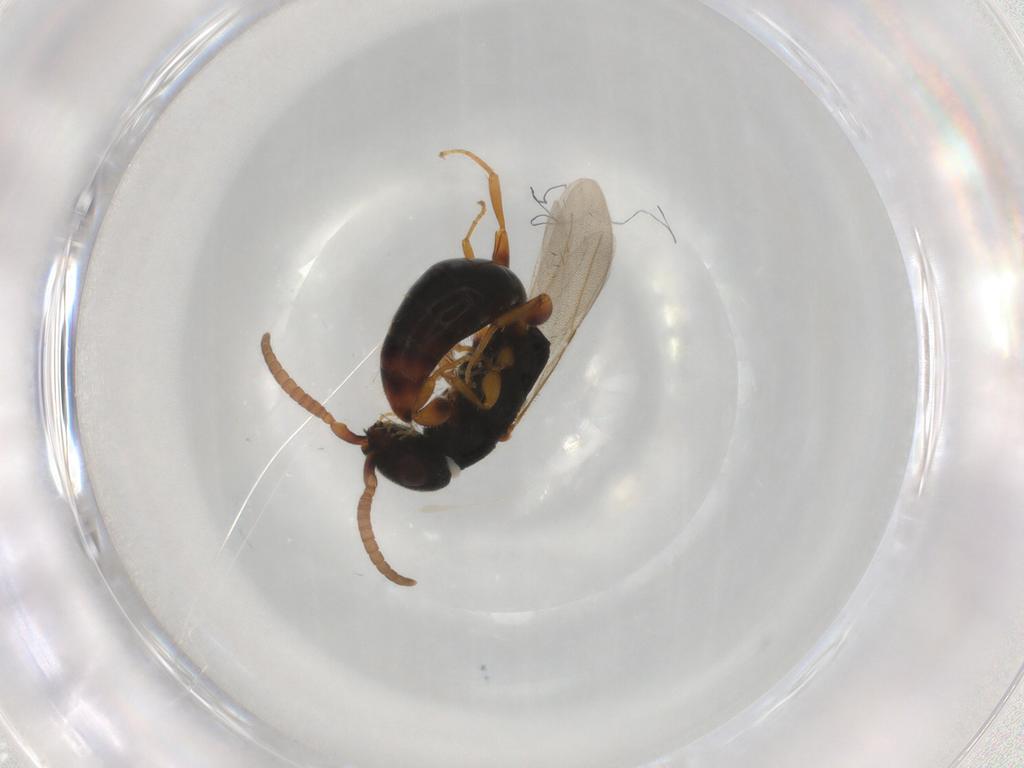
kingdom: Animalia
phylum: Arthropoda
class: Insecta
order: Hymenoptera
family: Bethylidae
